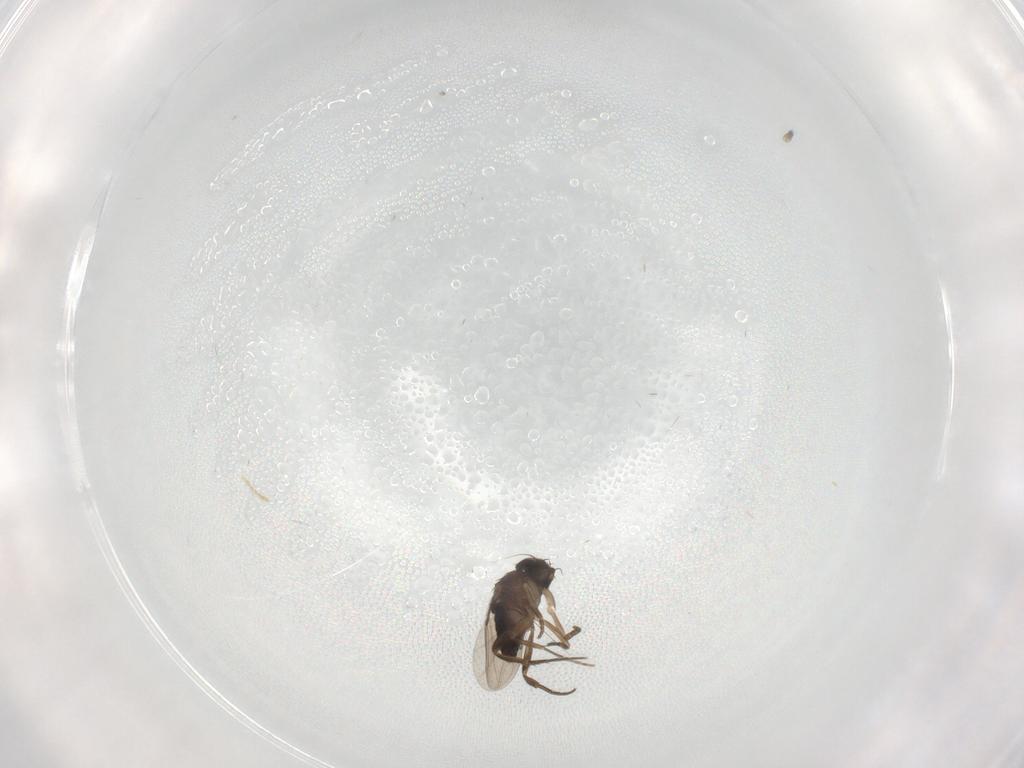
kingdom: Animalia
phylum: Arthropoda
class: Insecta
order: Diptera
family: Phoridae
